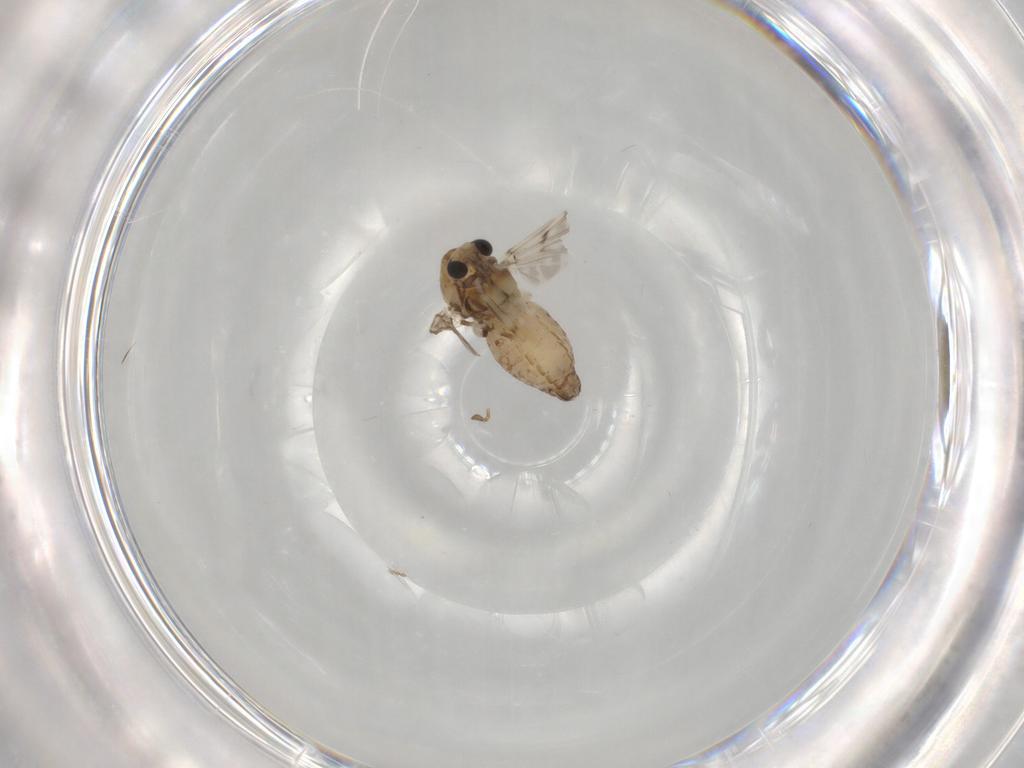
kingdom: Animalia
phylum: Arthropoda
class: Insecta
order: Diptera
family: Chironomidae
